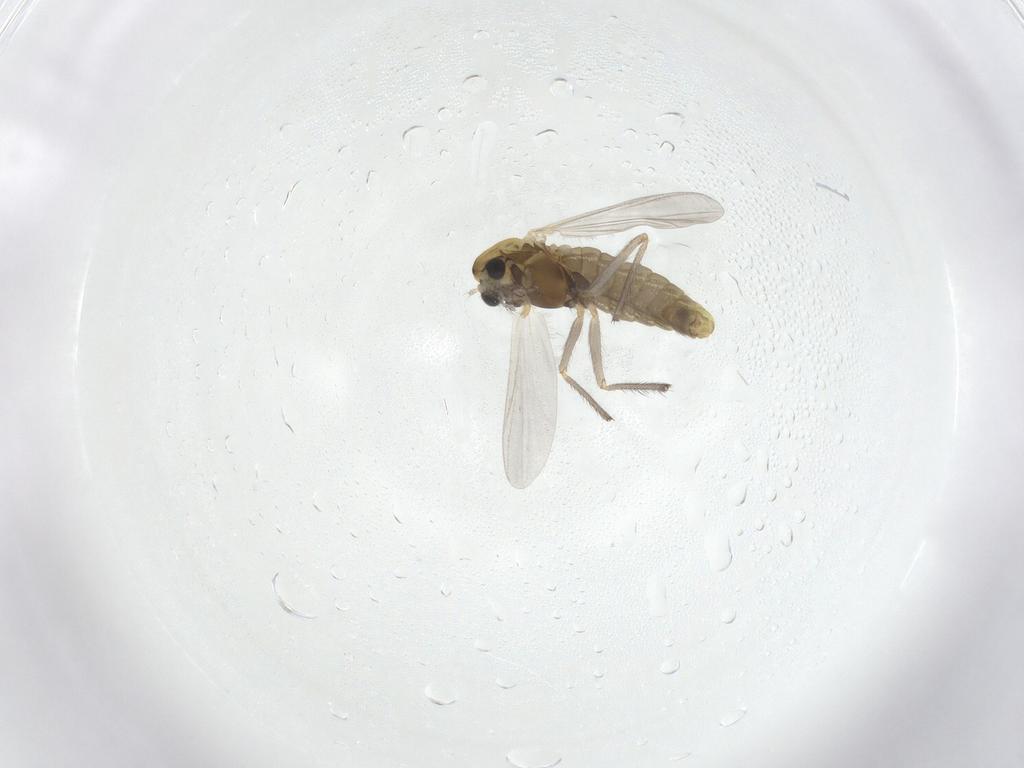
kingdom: Animalia
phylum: Arthropoda
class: Insecta
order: Diptera
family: Chironomidae
